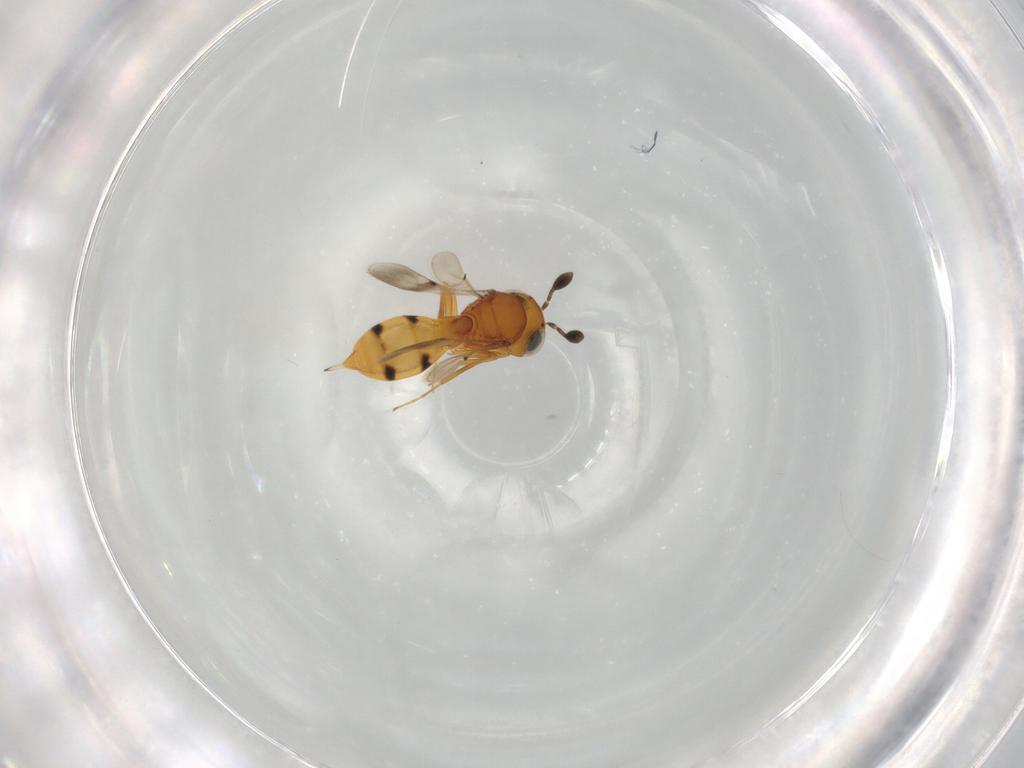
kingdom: Animalia
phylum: Arthropoda
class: Insecta
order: Hymenoptera
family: Scelionidae
